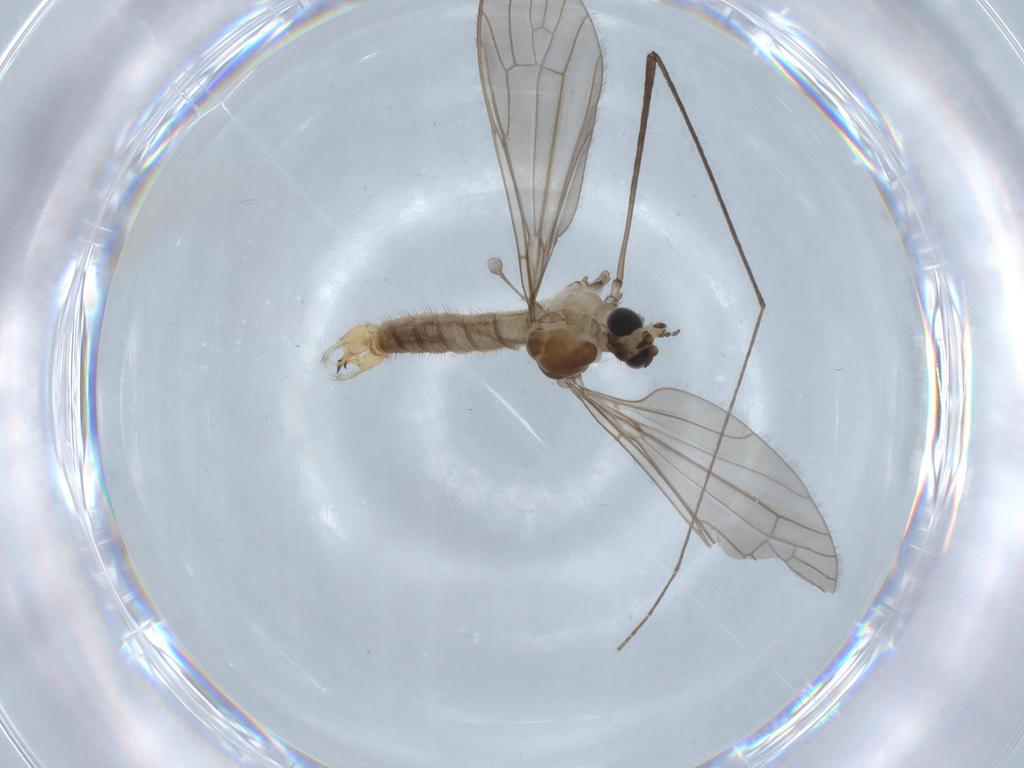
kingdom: Animalia
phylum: Arthropoda
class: Insecta
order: Diptera
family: Cecidomyiidae
